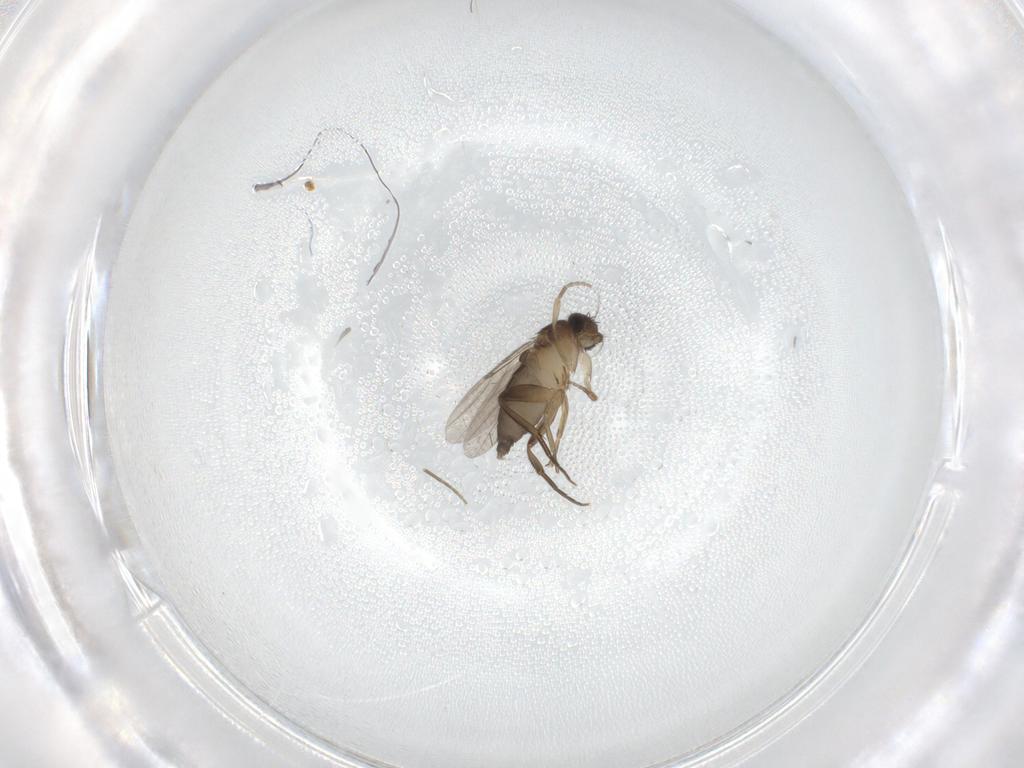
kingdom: Animalia
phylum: Arthropoda
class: Insecta
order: Diptera
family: Phoridae
